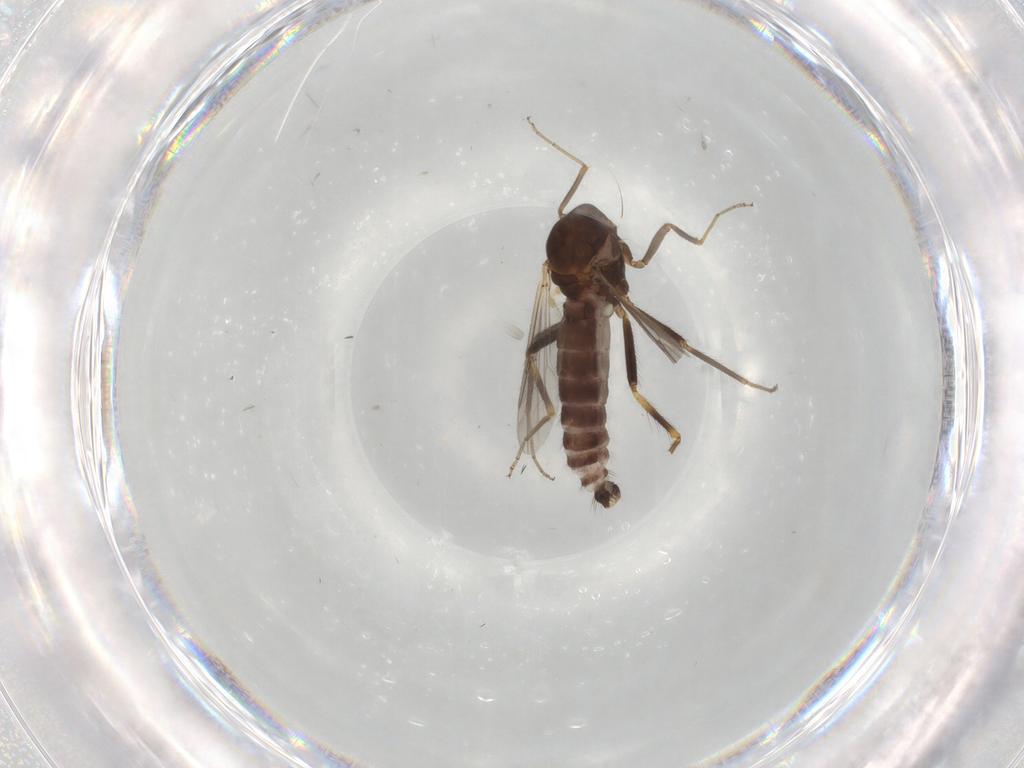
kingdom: Animalia
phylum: Arthropoda
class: Insecta
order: Diptera
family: Ceratopogonidae
